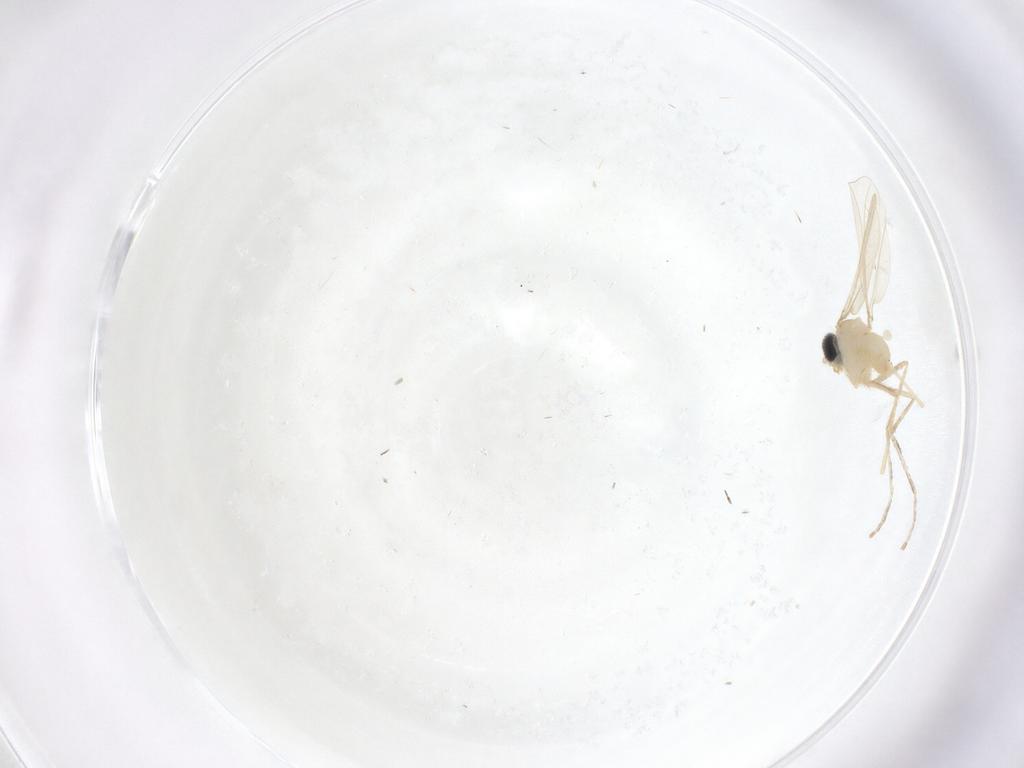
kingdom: Animalia
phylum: Arthropoda
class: Insecta
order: Diptera
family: Cecidomyiidae
